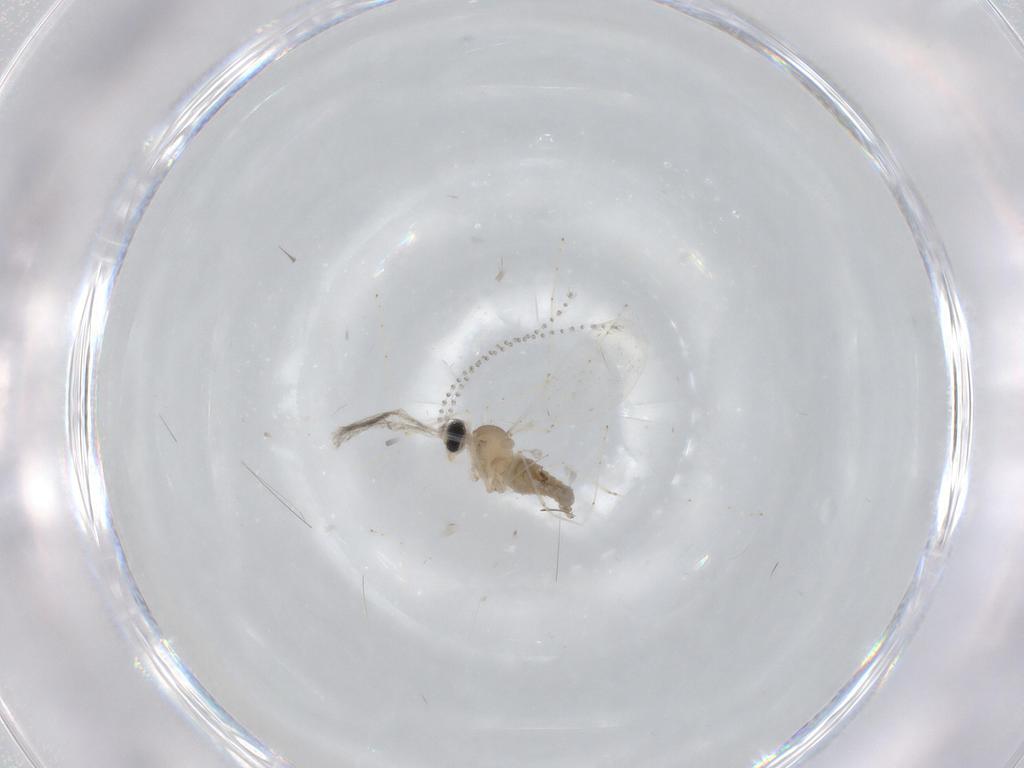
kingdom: Animalia
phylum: Arthropoda
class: Insecta
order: Diptera
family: Cecidomyiidae
